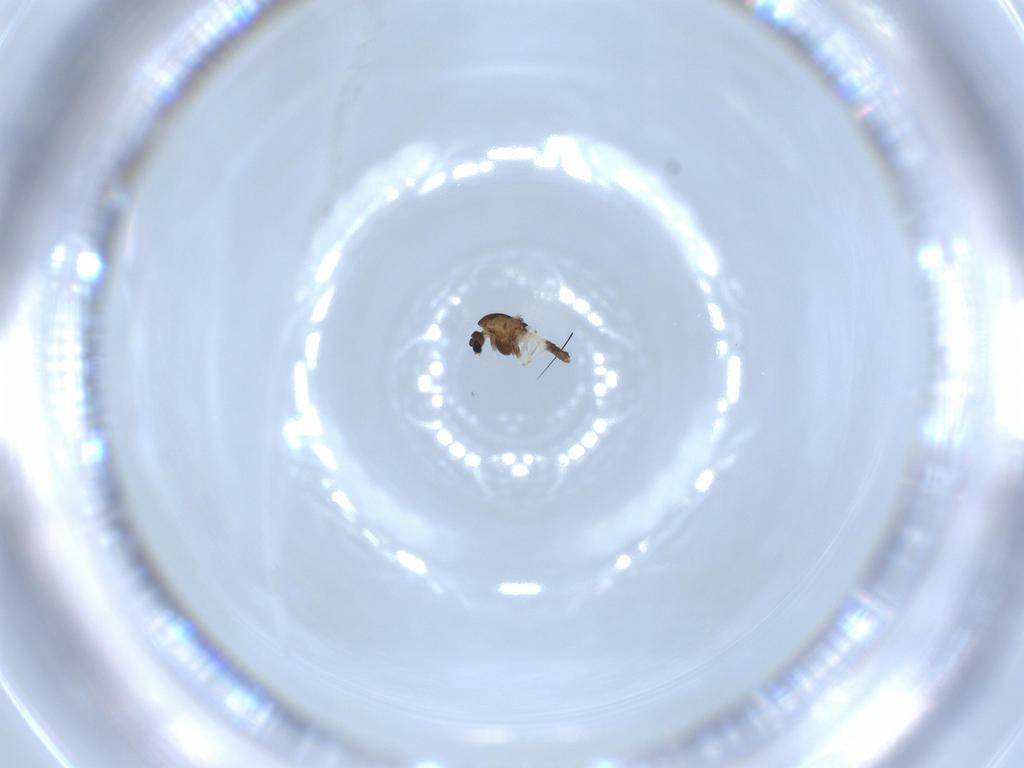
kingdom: Animalia
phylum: Arthropoda
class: Insecta
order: Diptera
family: Chironomidae
